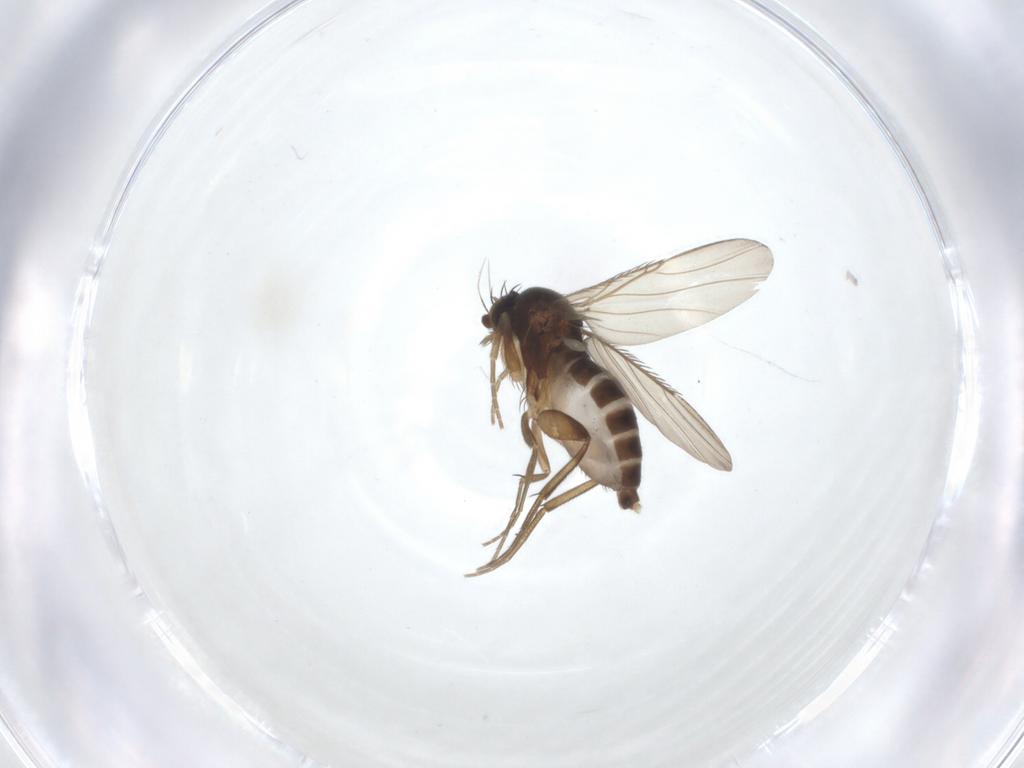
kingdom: Animalia
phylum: Arthropoda
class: Insecta
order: Diptera
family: Phoridae
